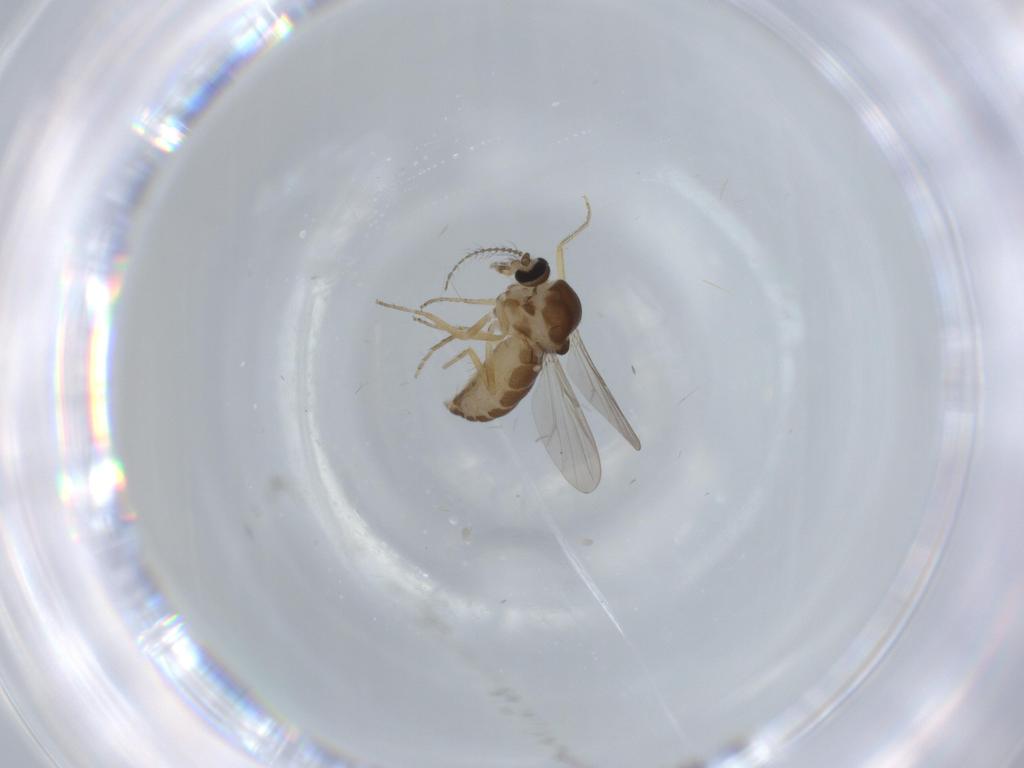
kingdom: Animalia
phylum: Arthropoda
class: Insecta
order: Diptera
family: Ceratopogonidae
